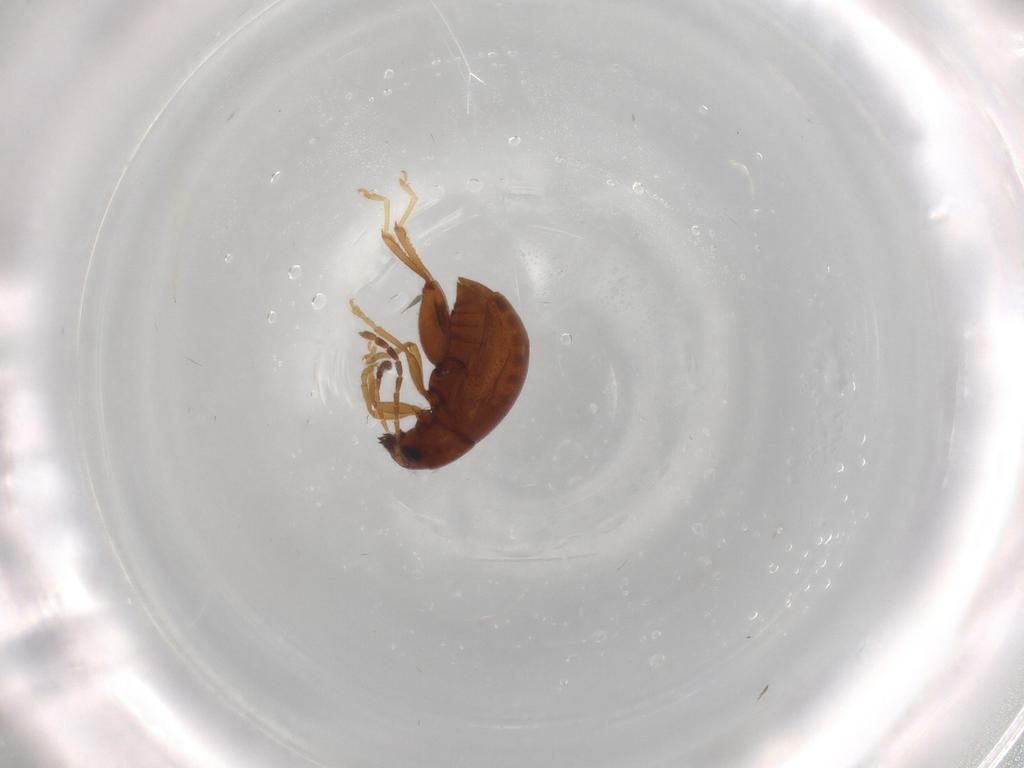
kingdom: Animalia
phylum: Arthropoda
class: Insecta
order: Coleoptera
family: Chrysomelidae
